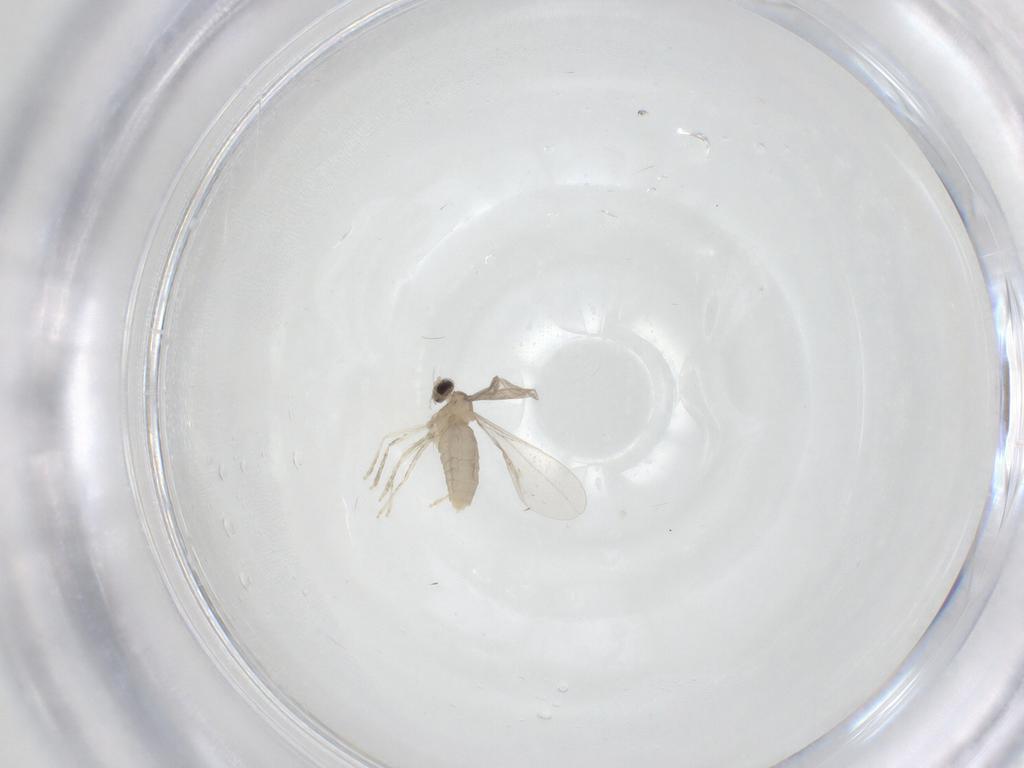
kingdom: Animalia
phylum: Arthropoda
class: Insecta
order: Diptera
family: Cecidomyiidae
